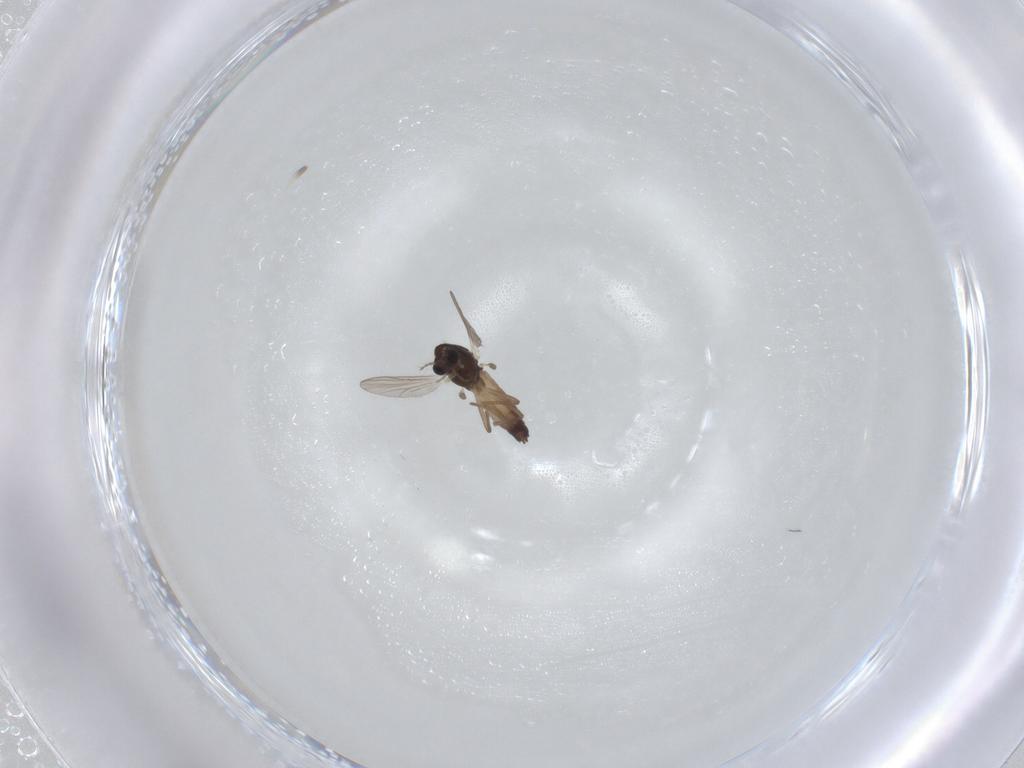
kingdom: Animalia
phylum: Arthropoda
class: Insecta
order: Diptera
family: Chironomidae
